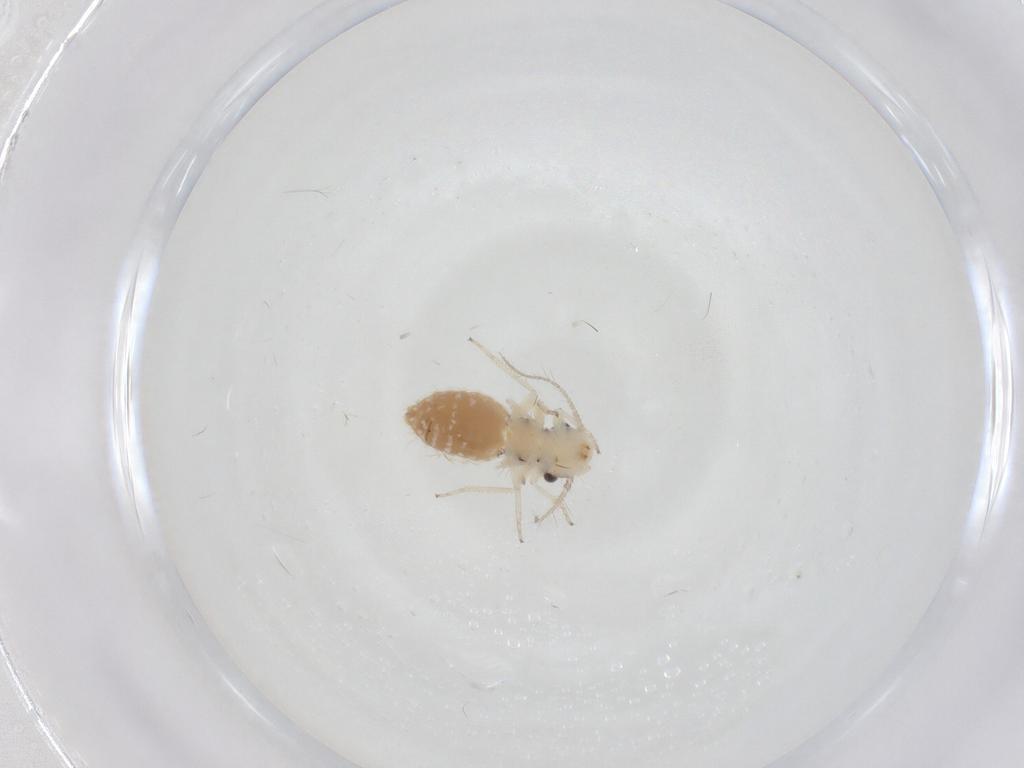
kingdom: Animalia
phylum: Arthropoda
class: Insecta
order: Psocodea
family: Pseudocaeciliidae
